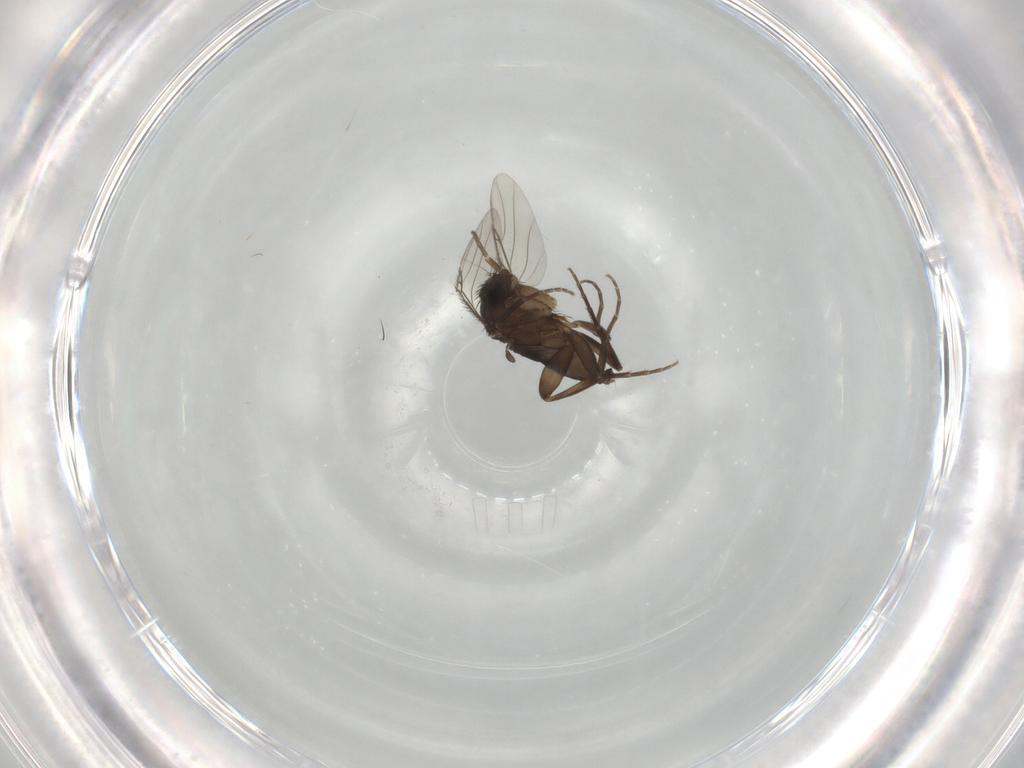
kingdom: Animalia
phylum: Arthropoda
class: Insecta
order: Diptera
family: Phoridae
